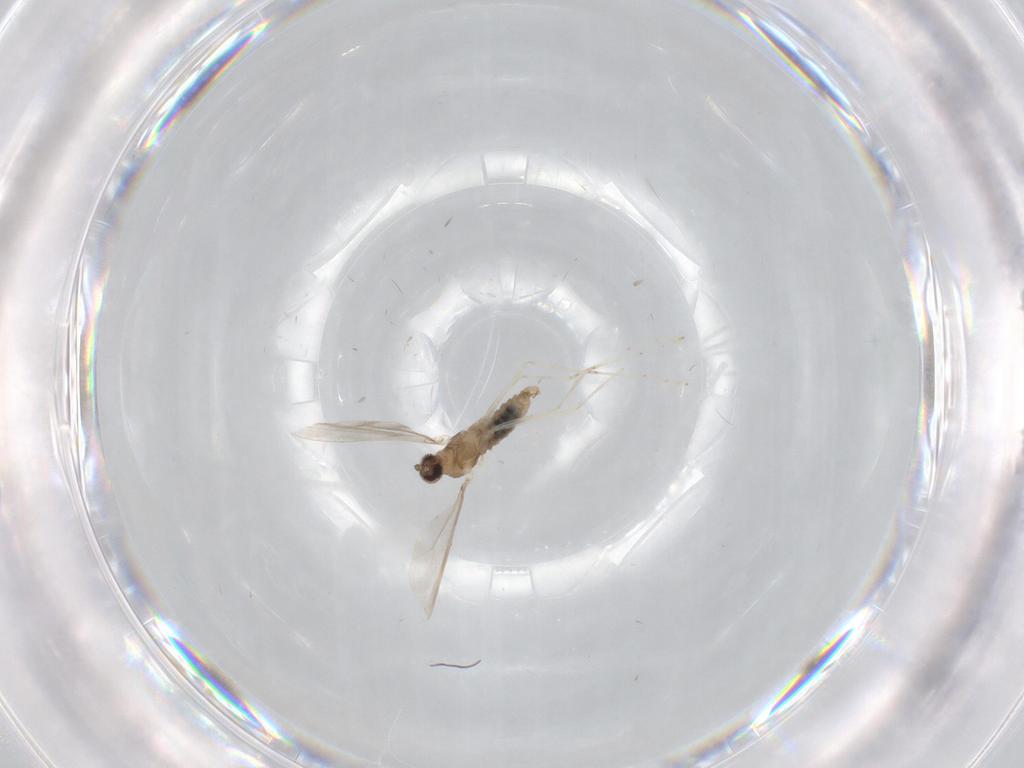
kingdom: Animalia
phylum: Arthropoda
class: Insecta
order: Diptera
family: Cecidomyiidae
